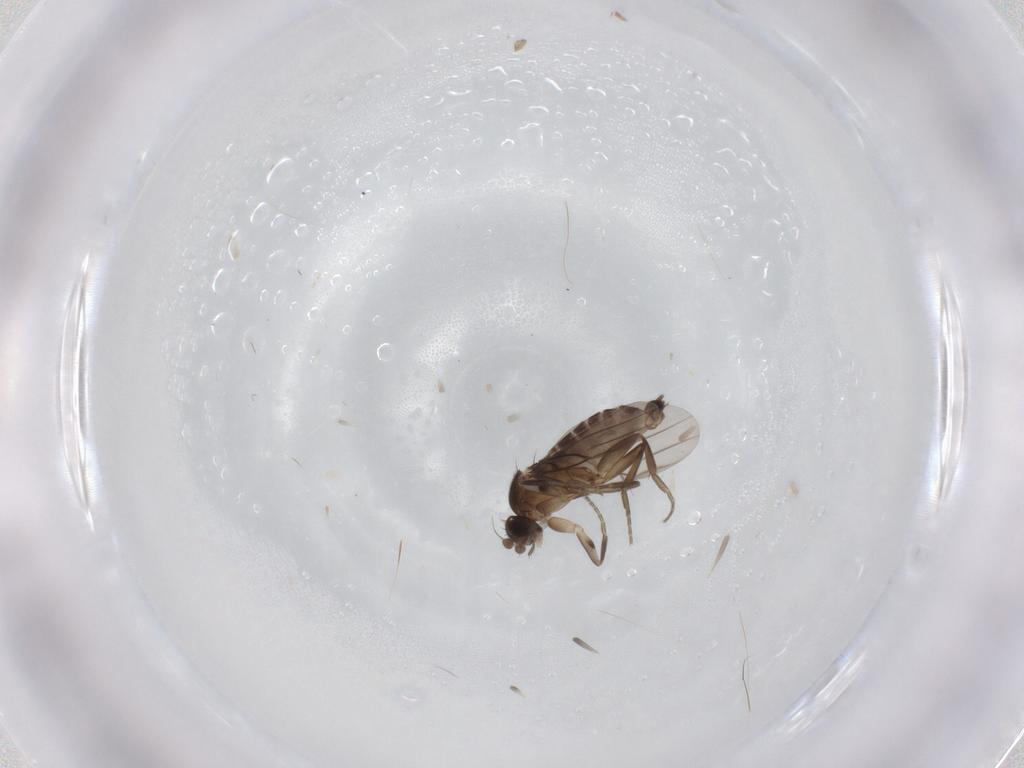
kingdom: Animalia
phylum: Arthropoda
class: Insecta
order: Diptera
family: Phoridae
